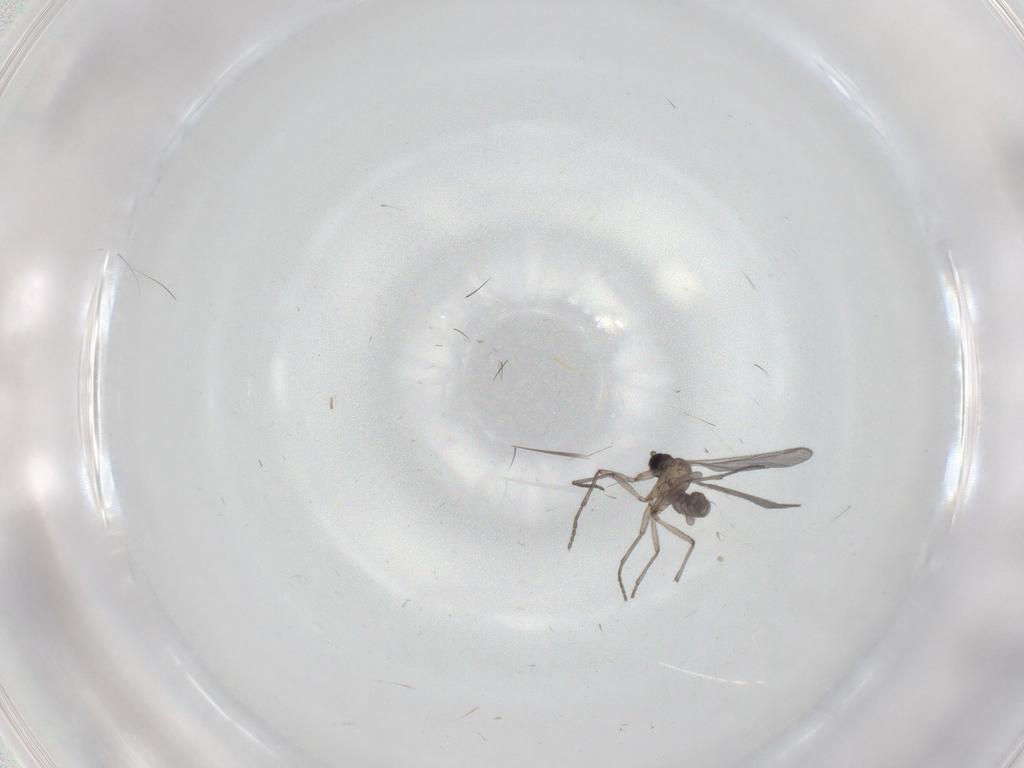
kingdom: Animalia
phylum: Arthropoda
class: Insecta
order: Diptera
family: Sciaridae
